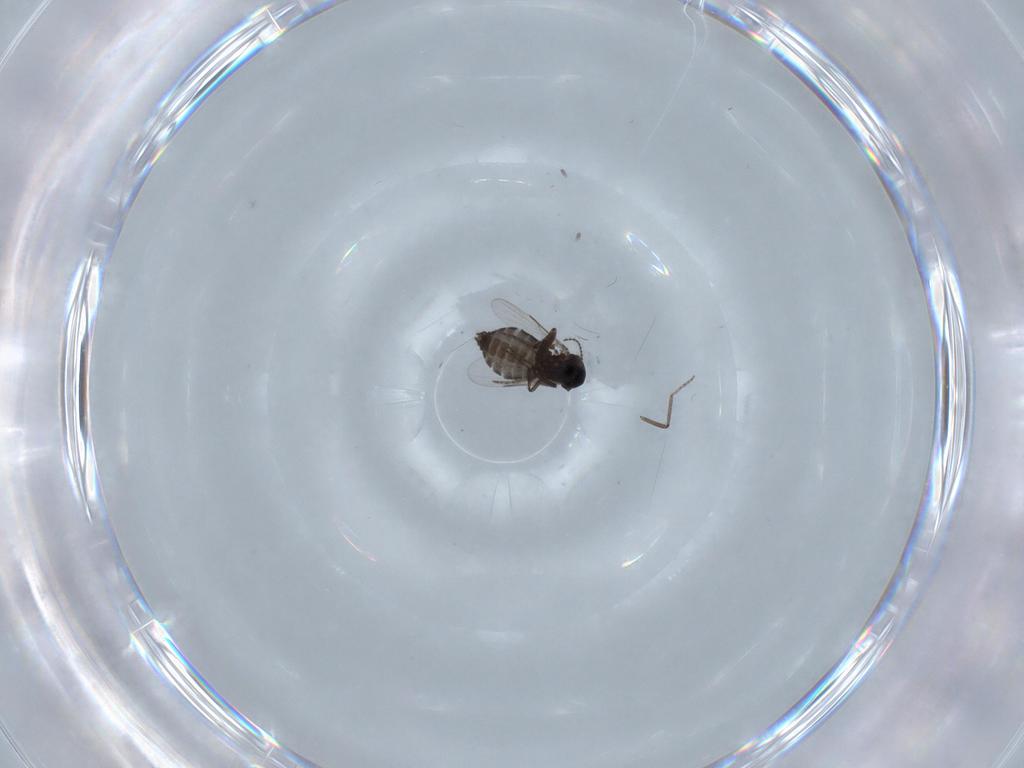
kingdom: Animalia
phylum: Arthropoda
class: Insecta
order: Diptera
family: Ceratopogonidae
